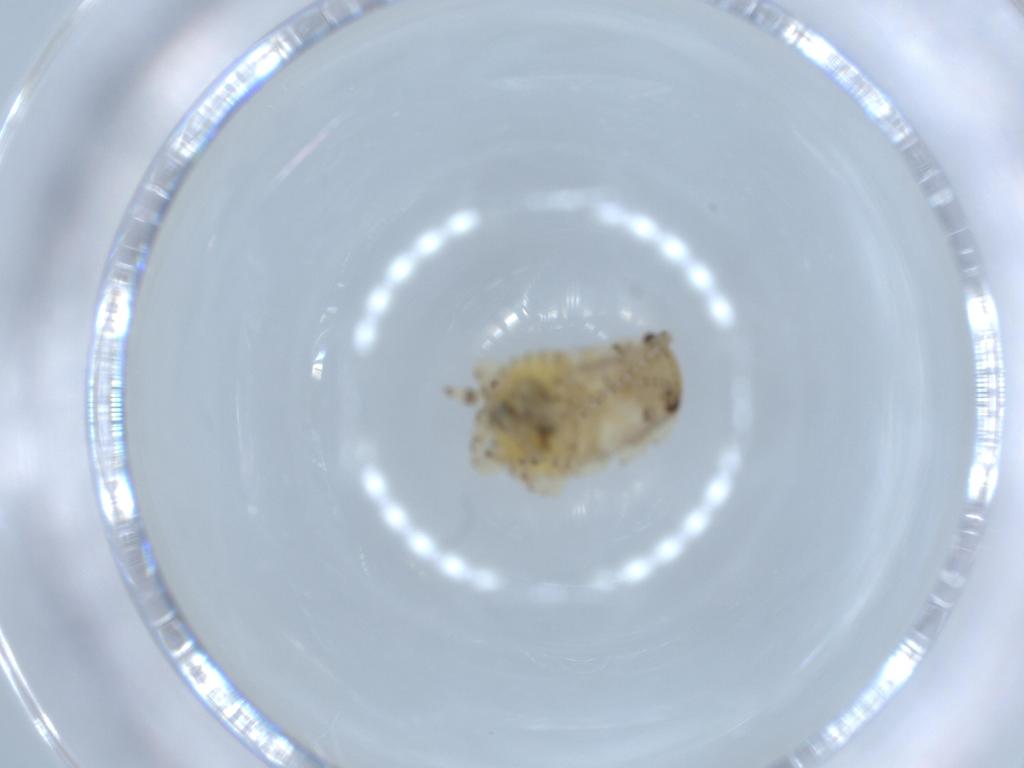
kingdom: Animalia
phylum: Arthropoda
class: Insecta
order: Blattodea
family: Ectobiidae
